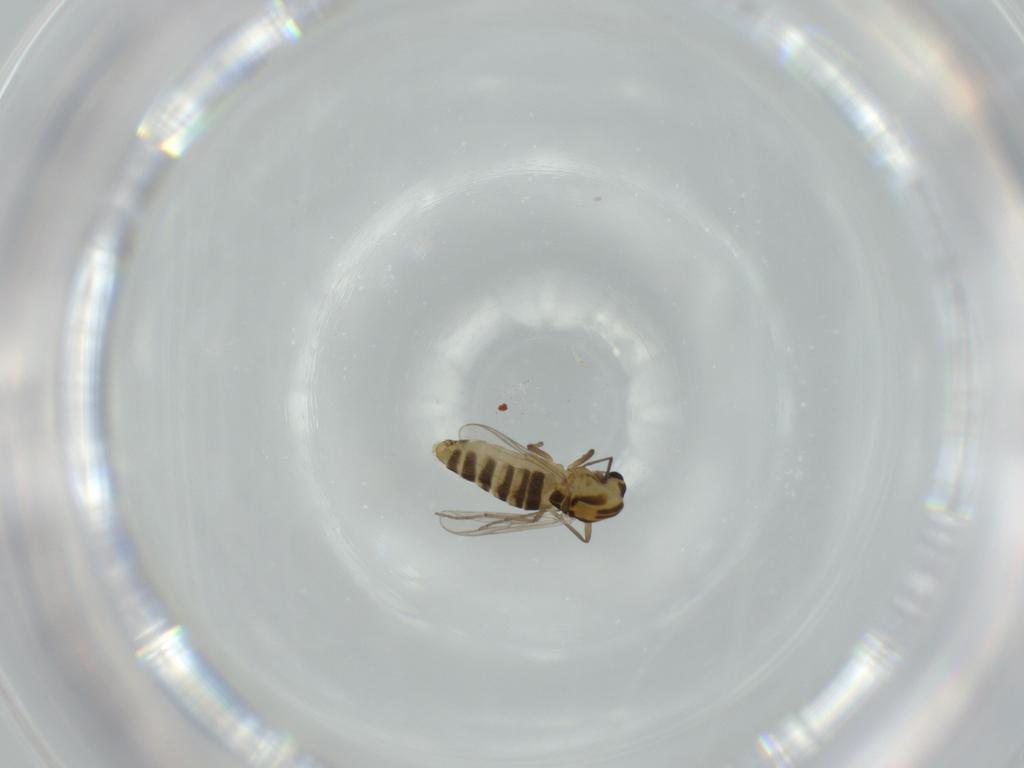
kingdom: Animalia
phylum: Arthropoda
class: Insecta
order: Diptera
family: Chironomidae
